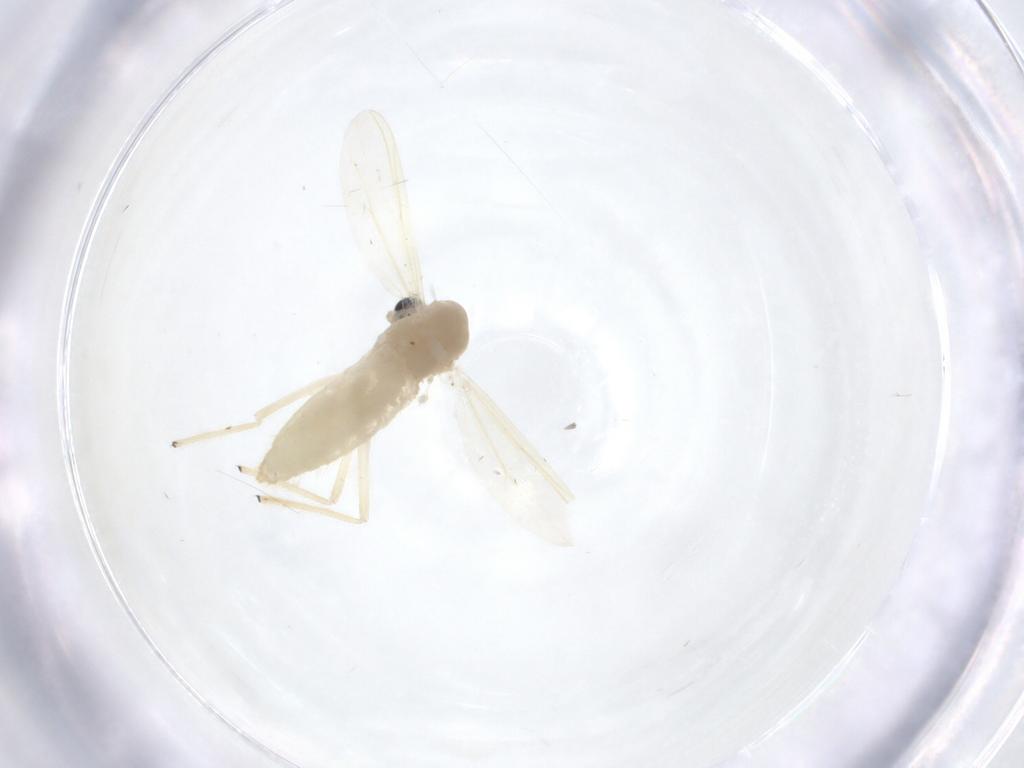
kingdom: Animalia
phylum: Arthropoda
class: Insecta
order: Diptera
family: Chironomidae
